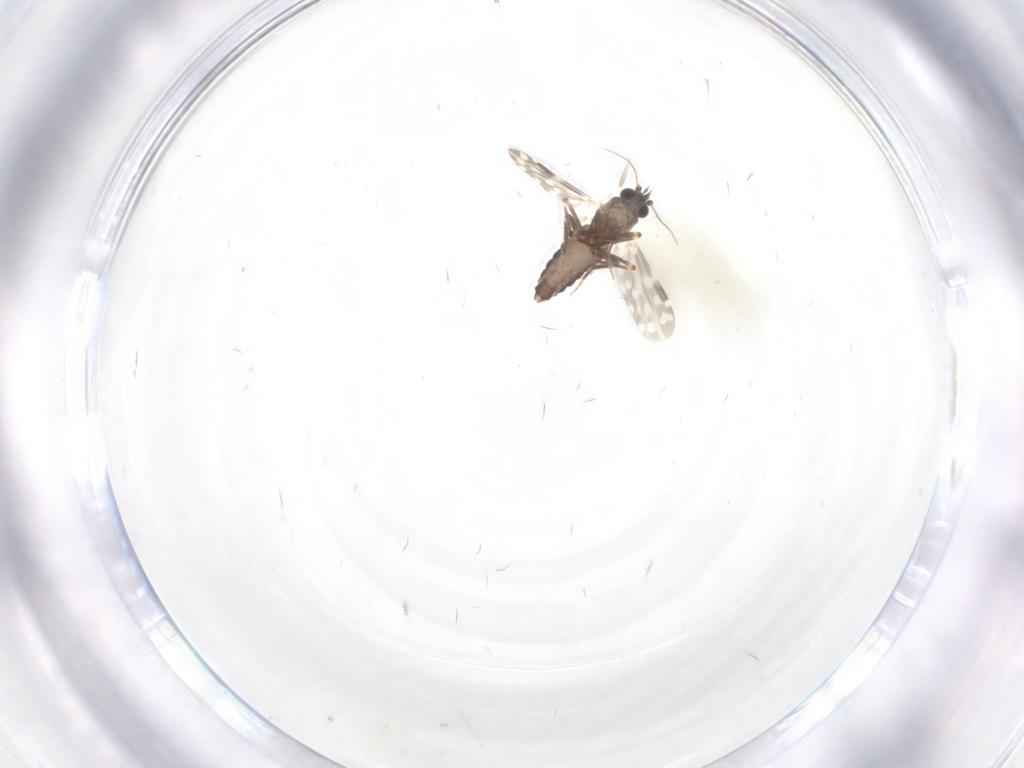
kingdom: Animalia
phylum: Arthropoda
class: Insecta
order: Diptera
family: Ceratopogonidae
